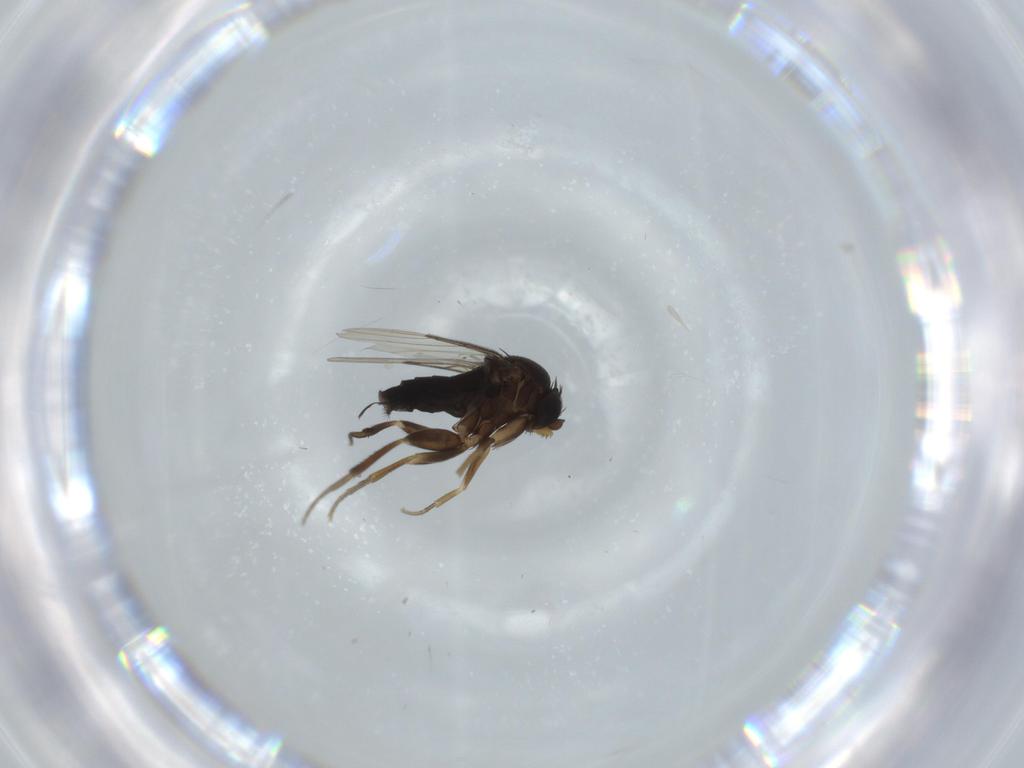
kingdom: Animalia
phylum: Arthropoda
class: Insecta
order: Diptera
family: Phoridae
